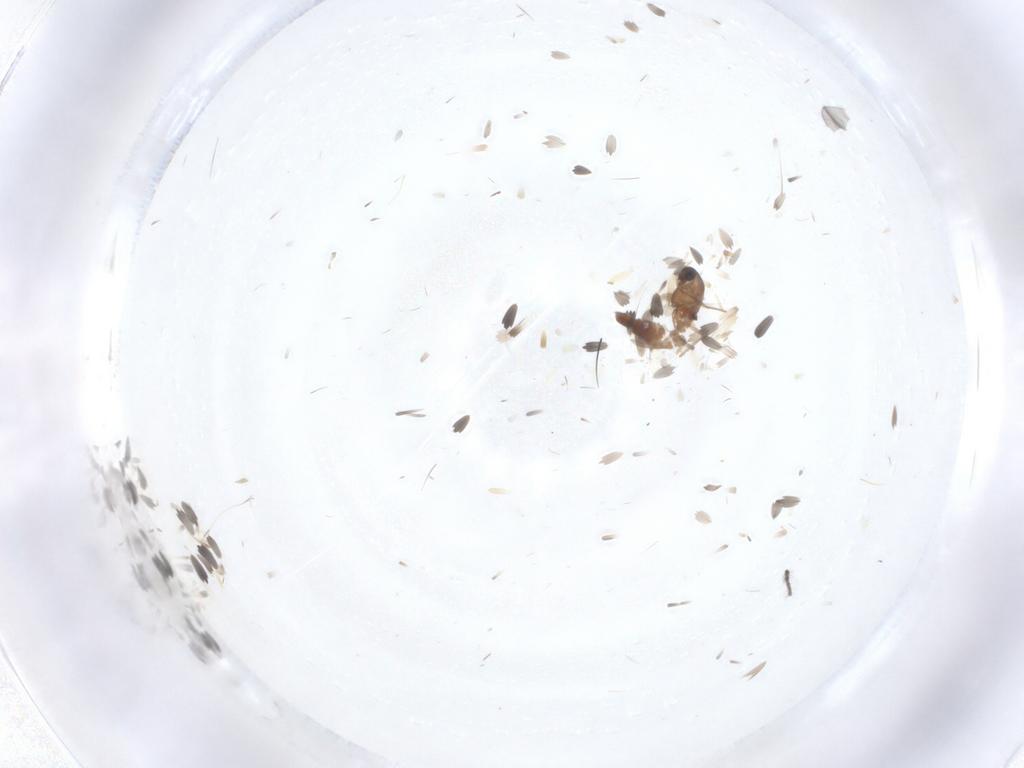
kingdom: Animalia
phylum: Arthropoda
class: Insecta
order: Diptera
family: Chironomidae
